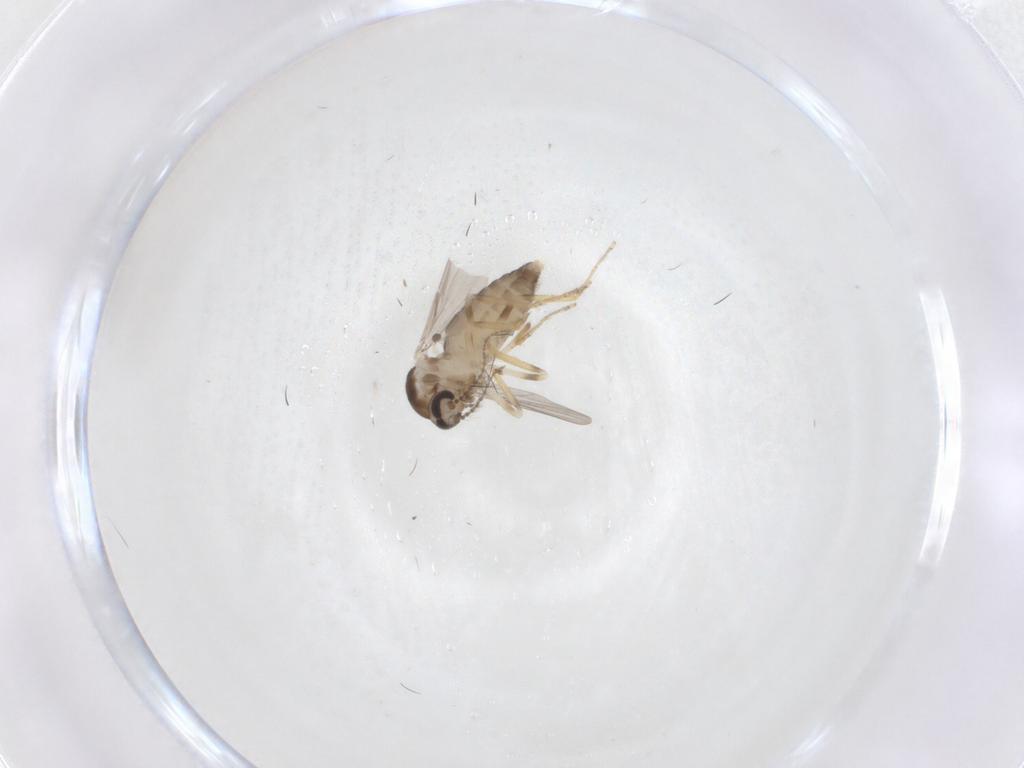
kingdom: Animalia
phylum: Arthropoda
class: Insecta
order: Diptera
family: Ceratopogonidae
